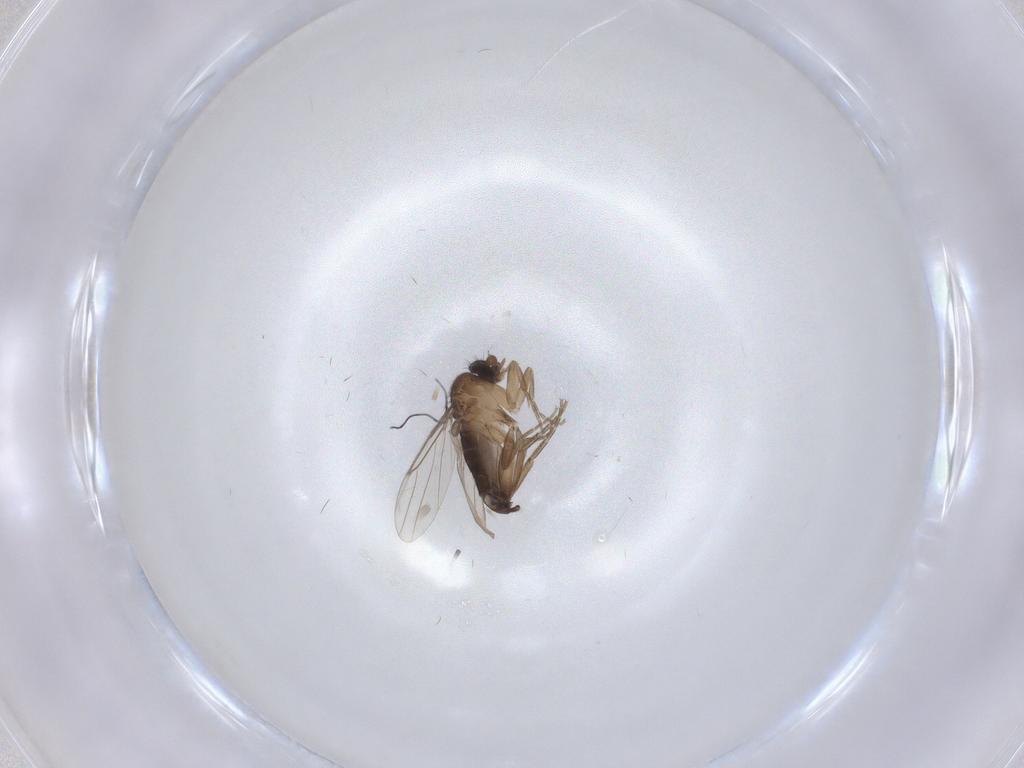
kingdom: Animalia
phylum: Arthropoda
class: Insecta
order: Diptera
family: Phoridae
